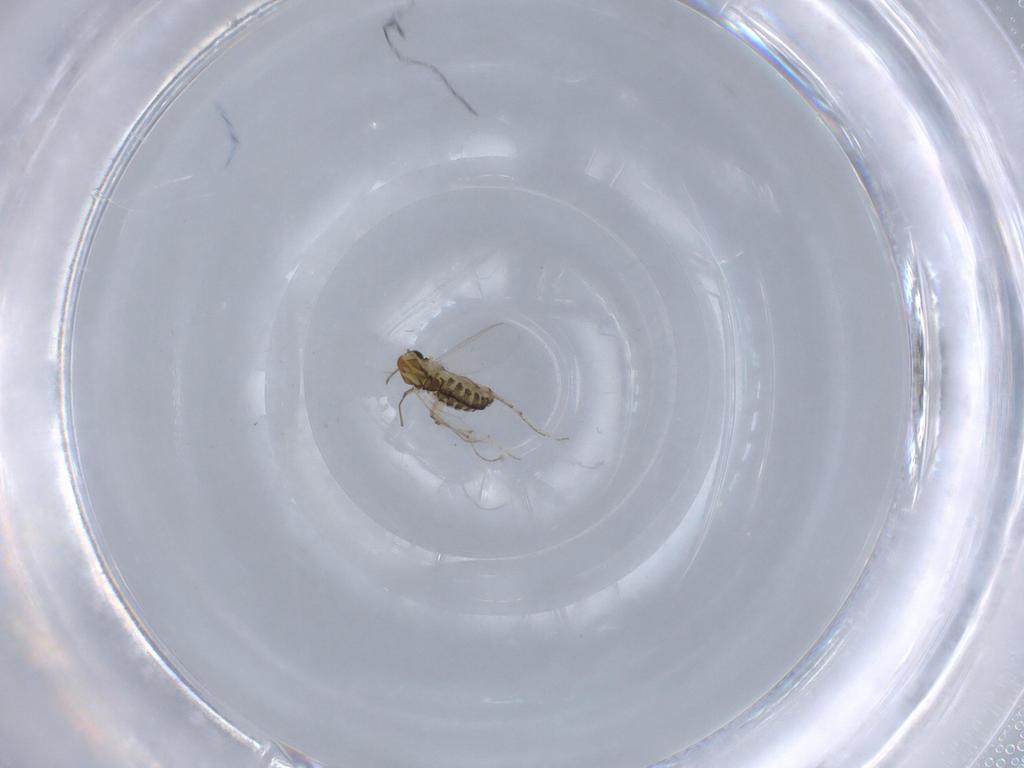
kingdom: Animalia
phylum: Arthropoda
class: Insecta
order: Diptera
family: Chironomidae
